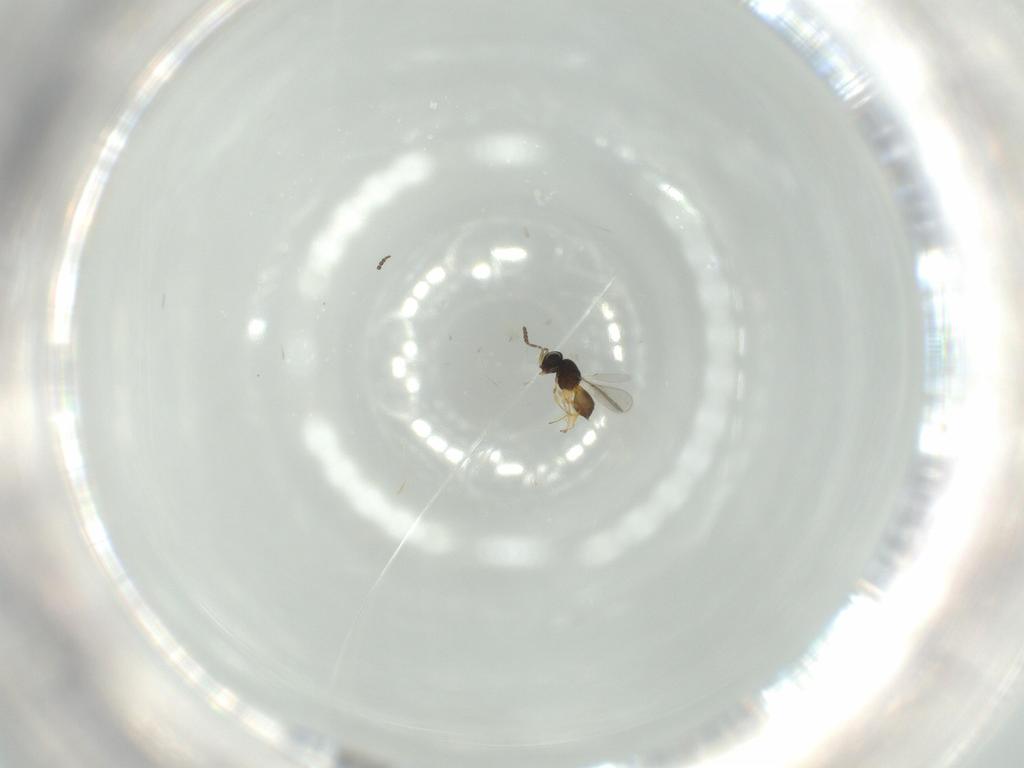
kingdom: Animalia
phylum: Arthropoda
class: Insecta
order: Hymenoptera
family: Scelionidae
